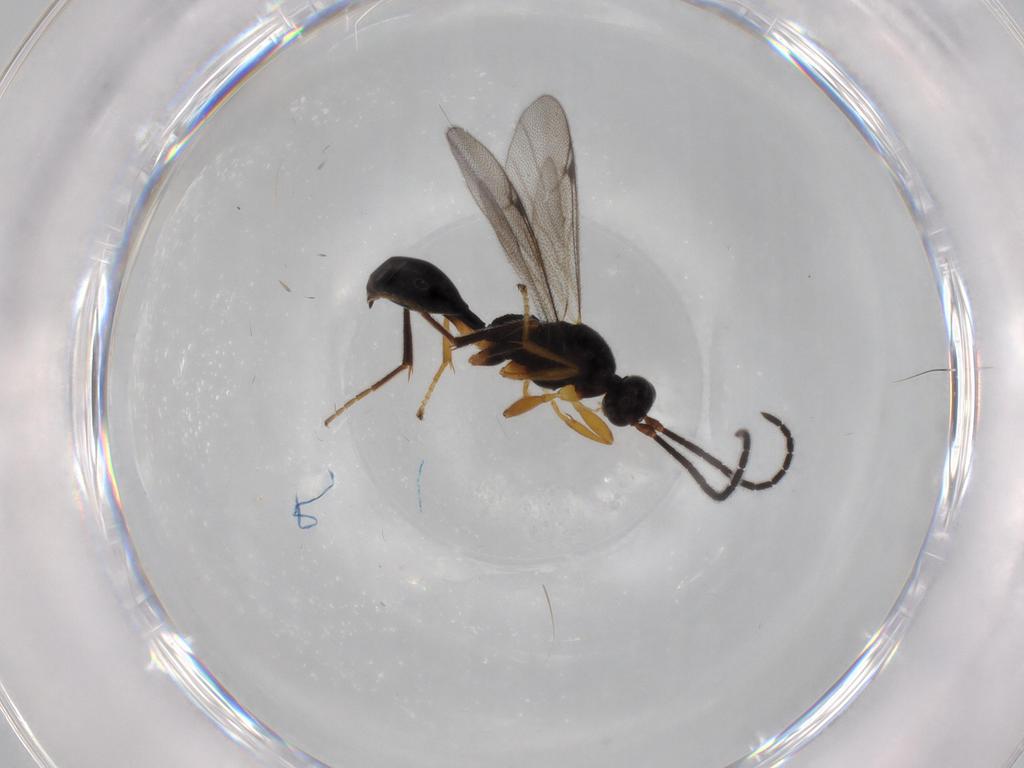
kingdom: Animalia
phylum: Arthropoda
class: Insecta
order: Hymenoptera
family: Proctotrupidae
